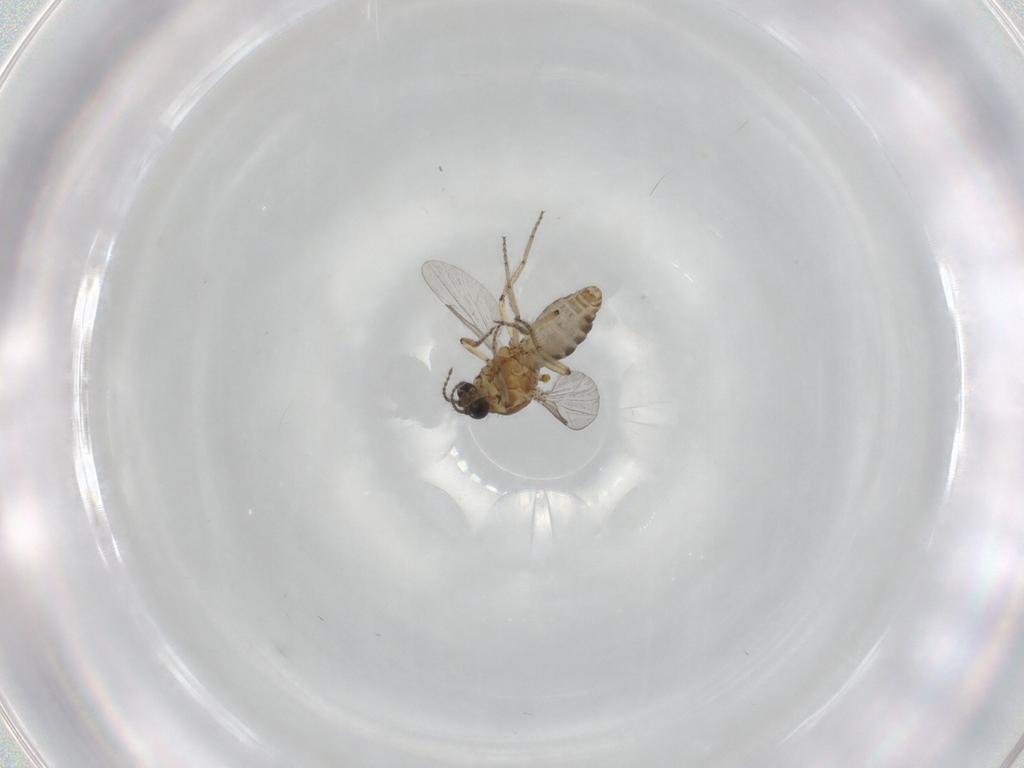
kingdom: Animalia
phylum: Arthropoda
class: Insecta
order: Diptera
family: Ceratopogonidae
